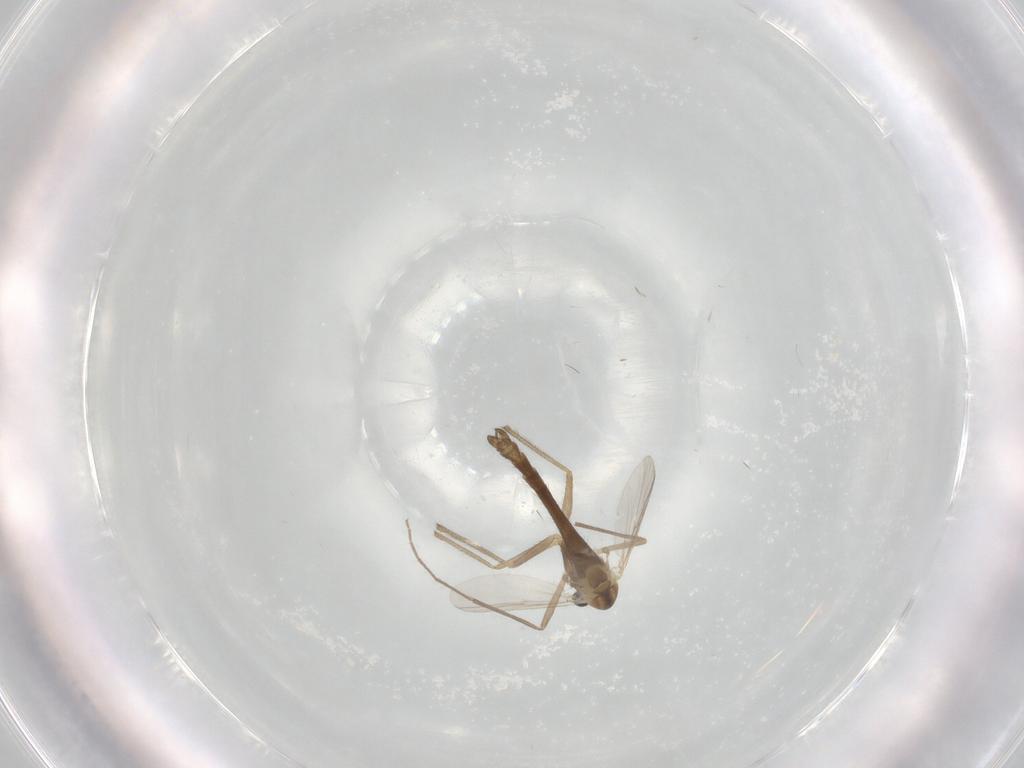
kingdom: Animalia
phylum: Arthropoda
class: Insecta
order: Diptera
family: Chironomidae
